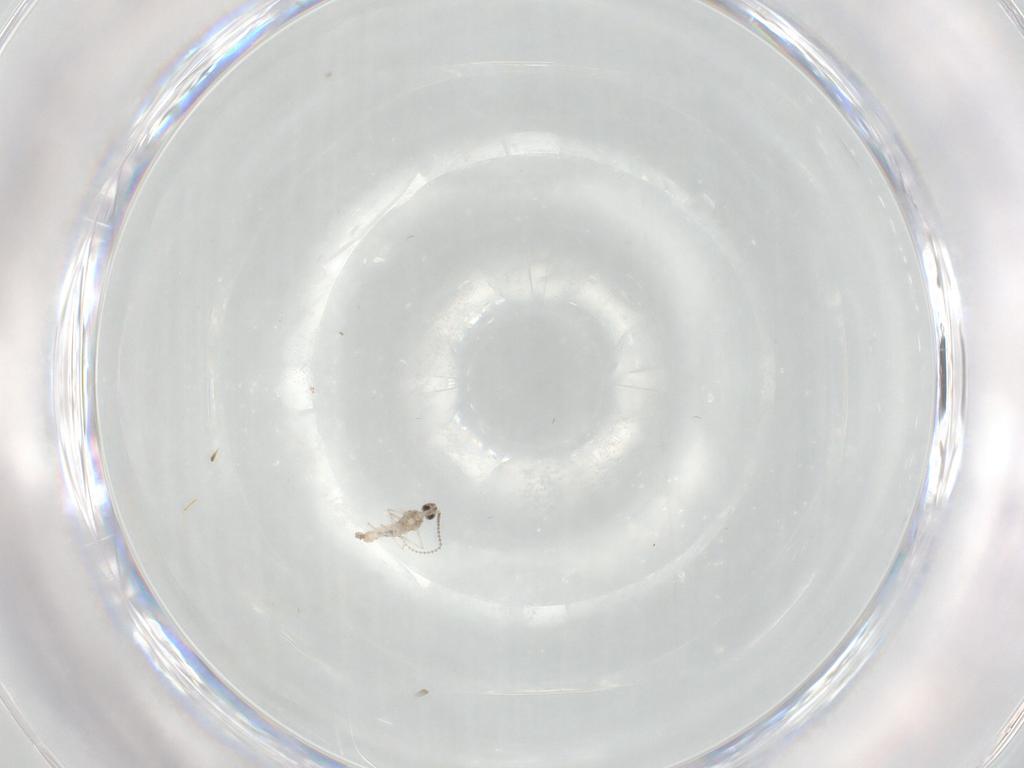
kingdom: Animalia
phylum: Arthropoda
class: Insecta
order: Diptera
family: Cecidomyiidae
